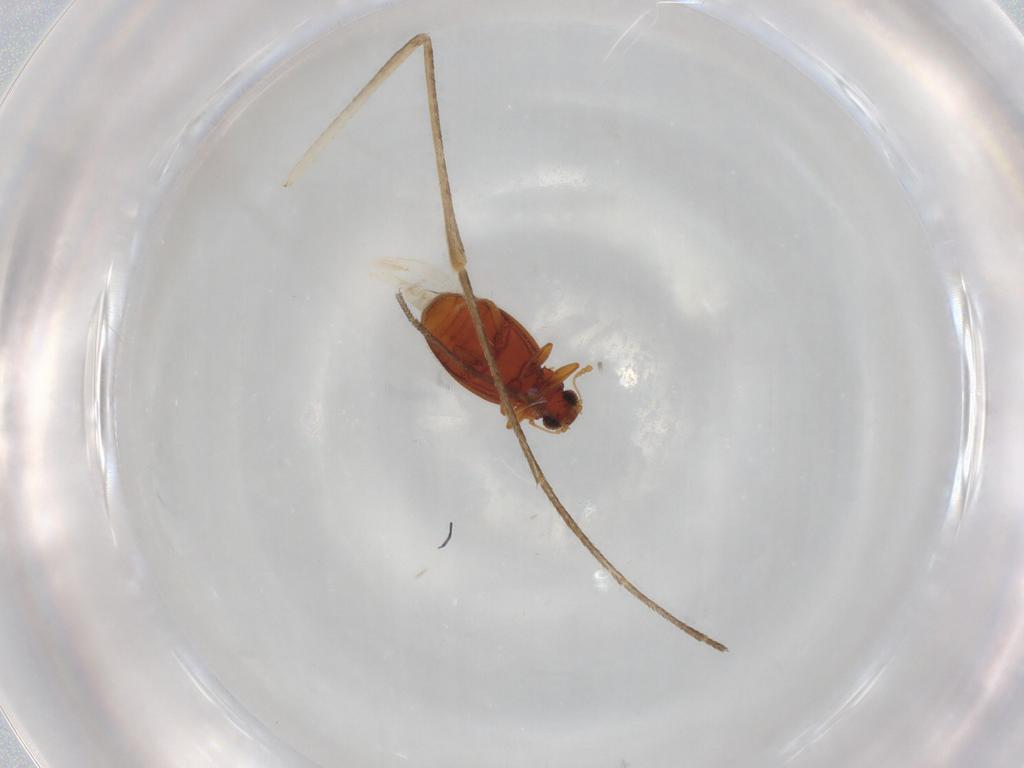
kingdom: Animalia
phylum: Arthropoda
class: Insecta
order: Coleoptera
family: Latridiidae
